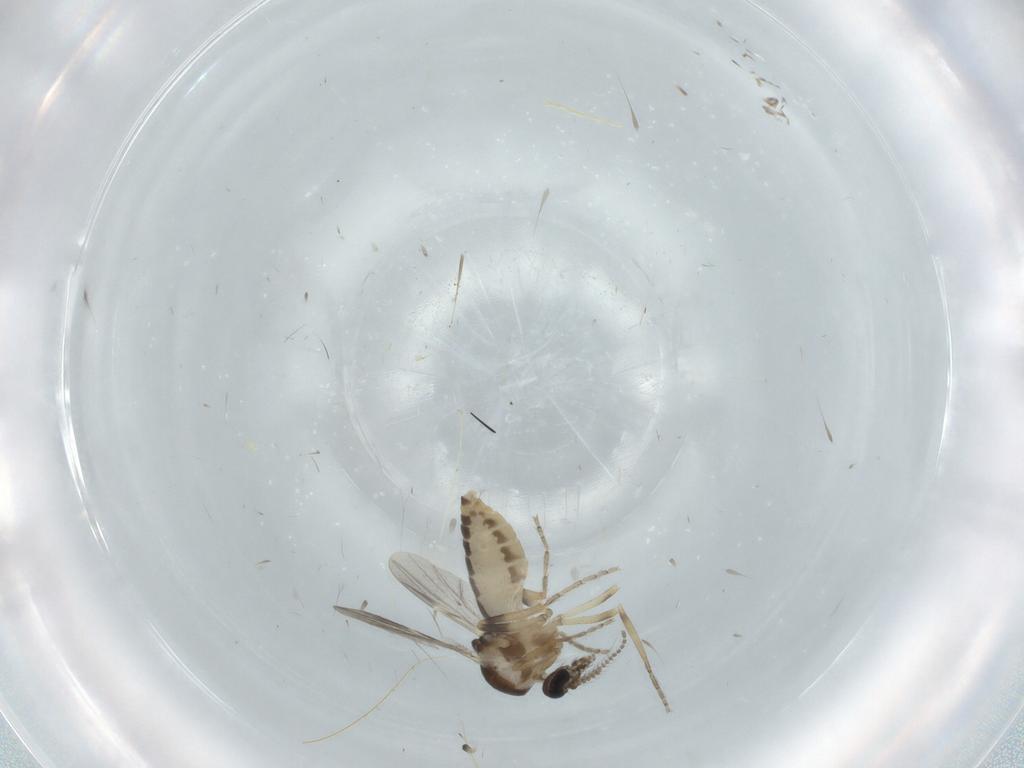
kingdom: Animalia
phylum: Arthropoda
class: Insecta
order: Diptera
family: Ceratopogonidae
